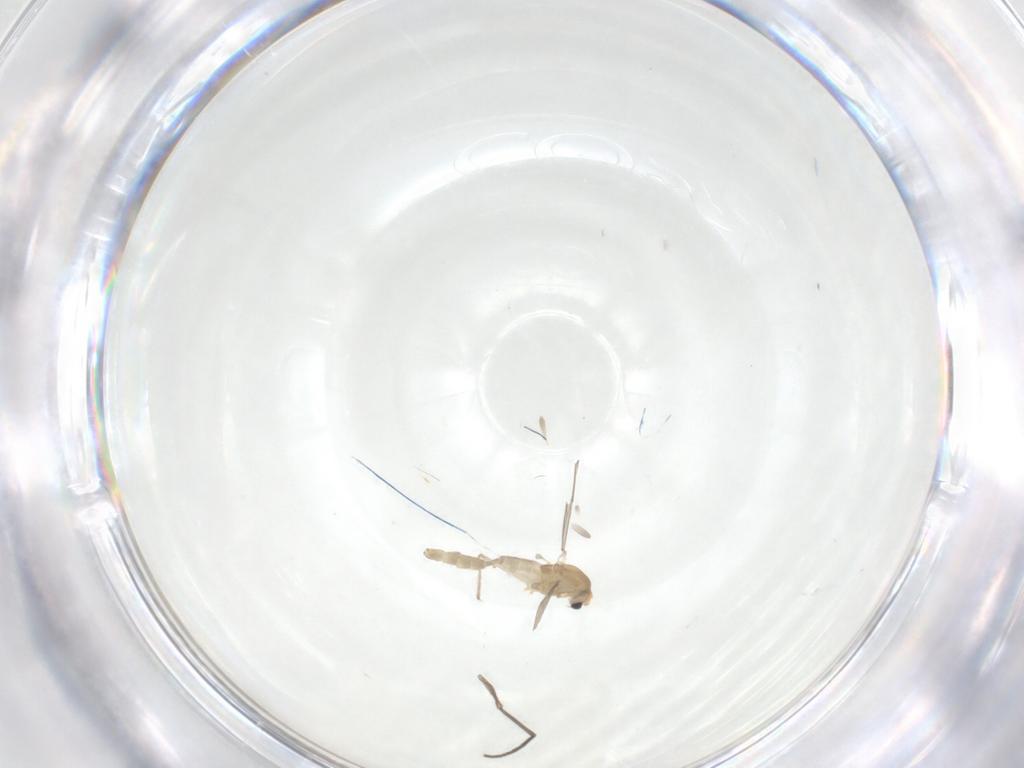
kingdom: Animalia
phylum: Arthropoda
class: Insecta
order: Diptera
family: Chironomidae
